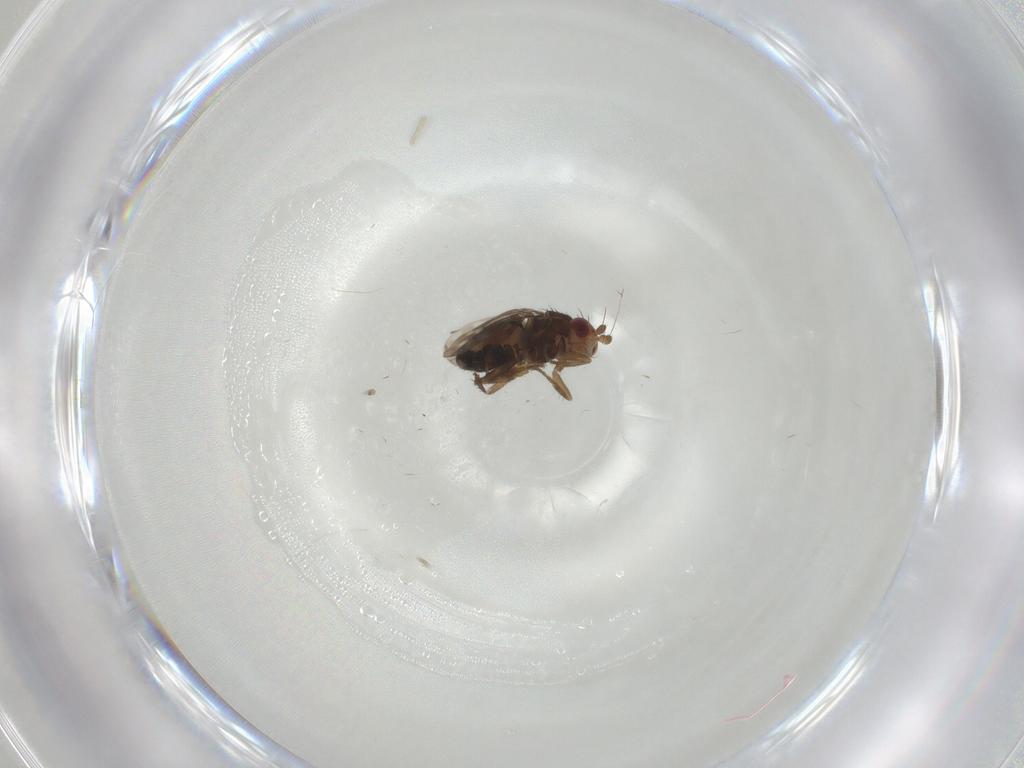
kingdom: Animalia
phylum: Arthropoda
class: Insecta
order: Diptera
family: Sphaeroceridae
